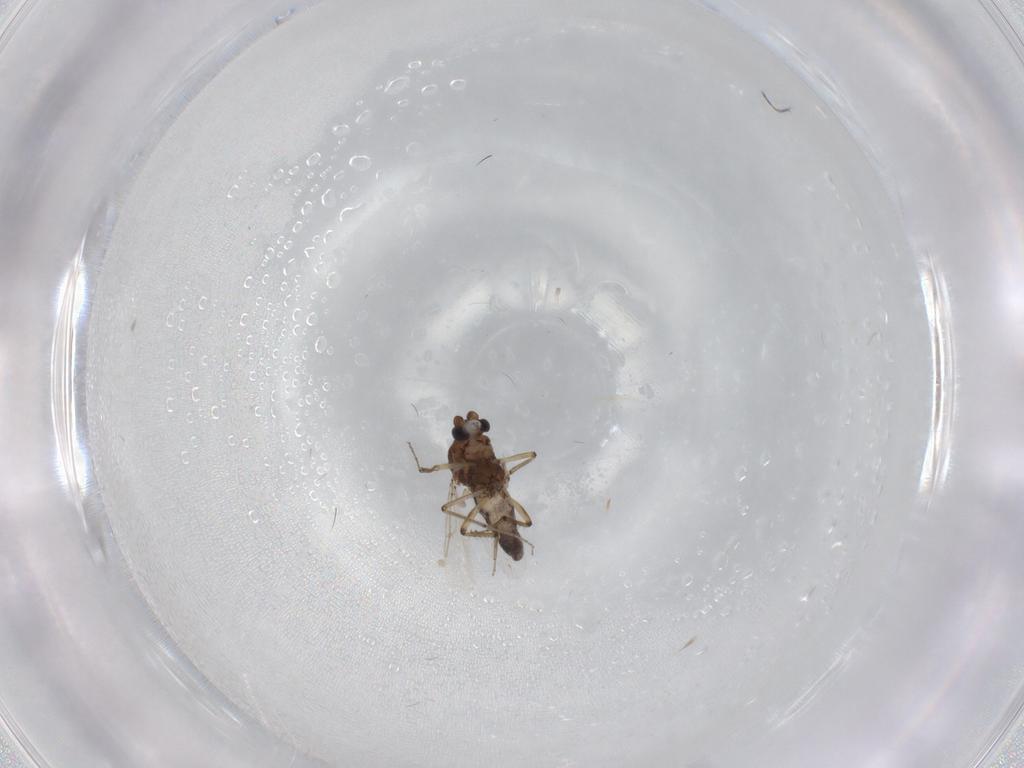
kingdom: Animalia
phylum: Arthropoda
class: Insecta
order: Diptera
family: Ceratopogonidae
